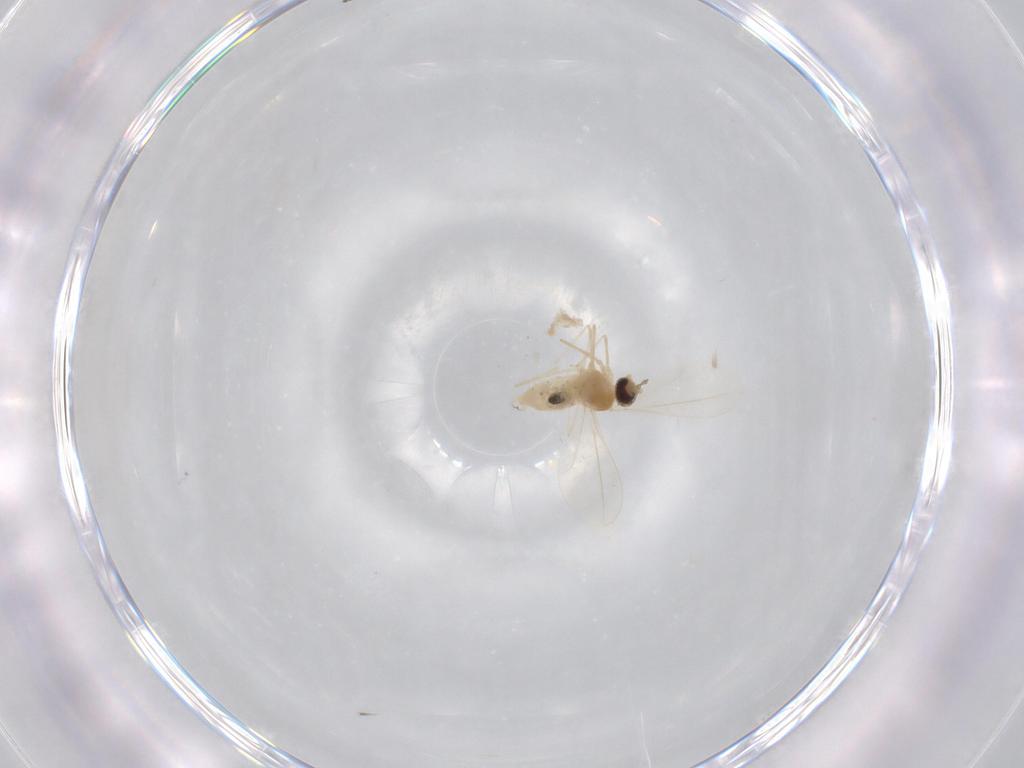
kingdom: Animalia
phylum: Arthropoda
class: Insecta
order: Diptera
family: Cecidomyiidae
